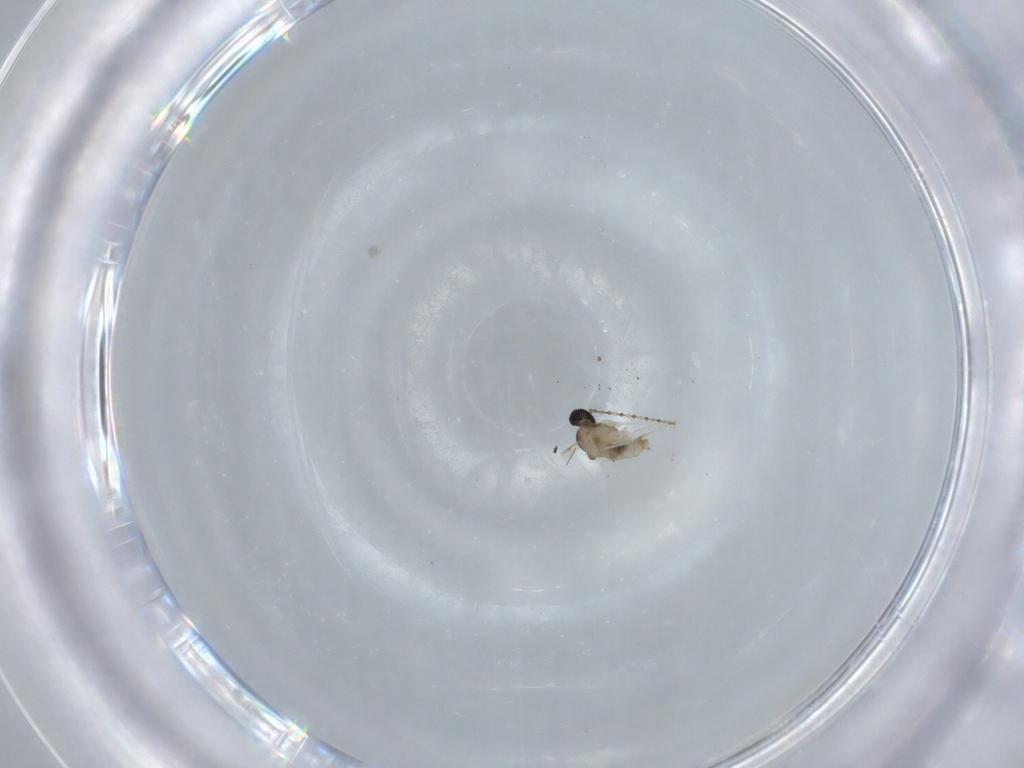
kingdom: Animalia
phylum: Arthropoda
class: Insecta
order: Diptera
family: Cecidomyiidae
